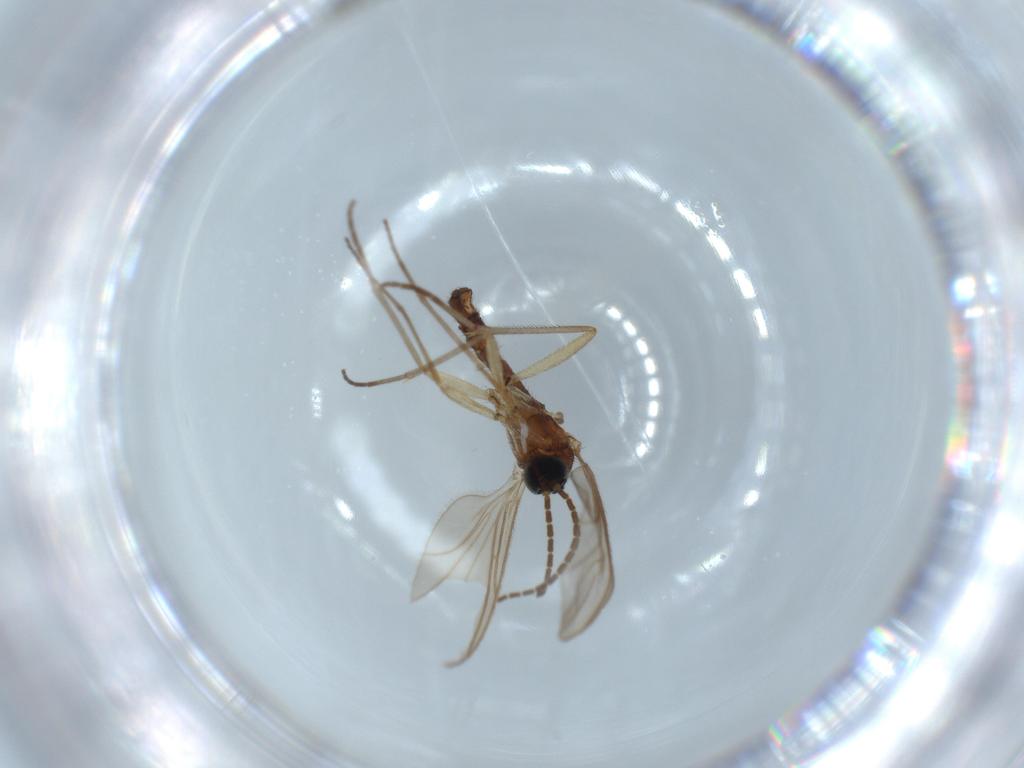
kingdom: Animalia
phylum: Arthropoda
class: Insecta
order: Diptera
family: Sciaridae
